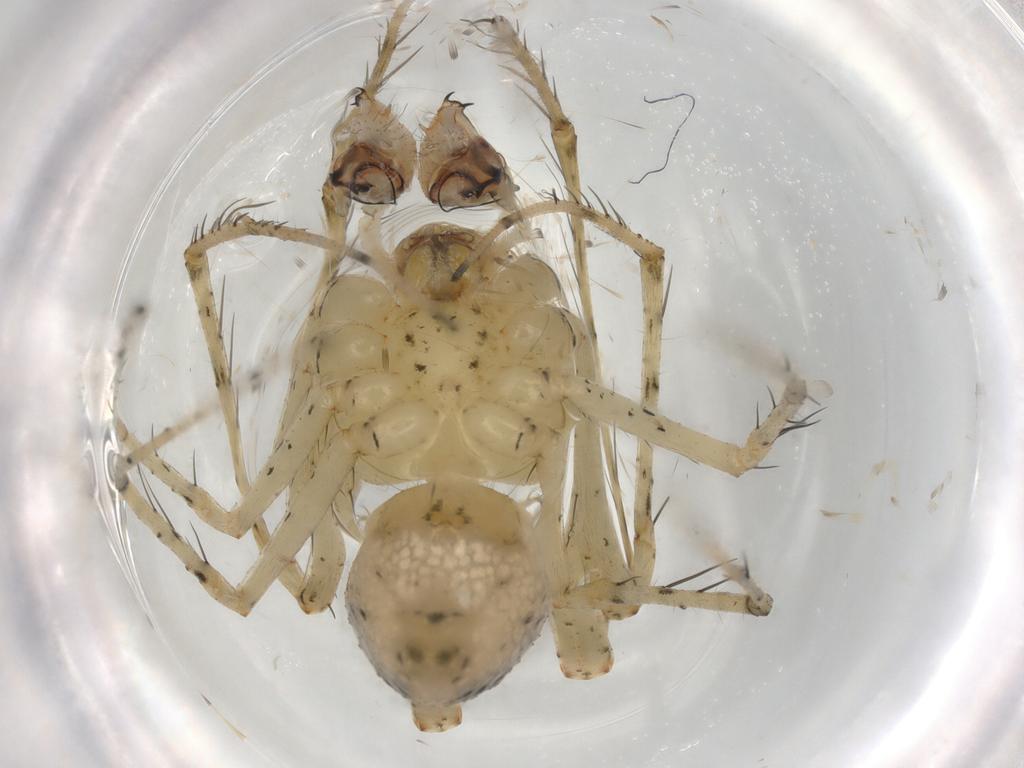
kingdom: Animalia
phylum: Arthropoda
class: Arachnida
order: Araneae
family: Mimetidae
